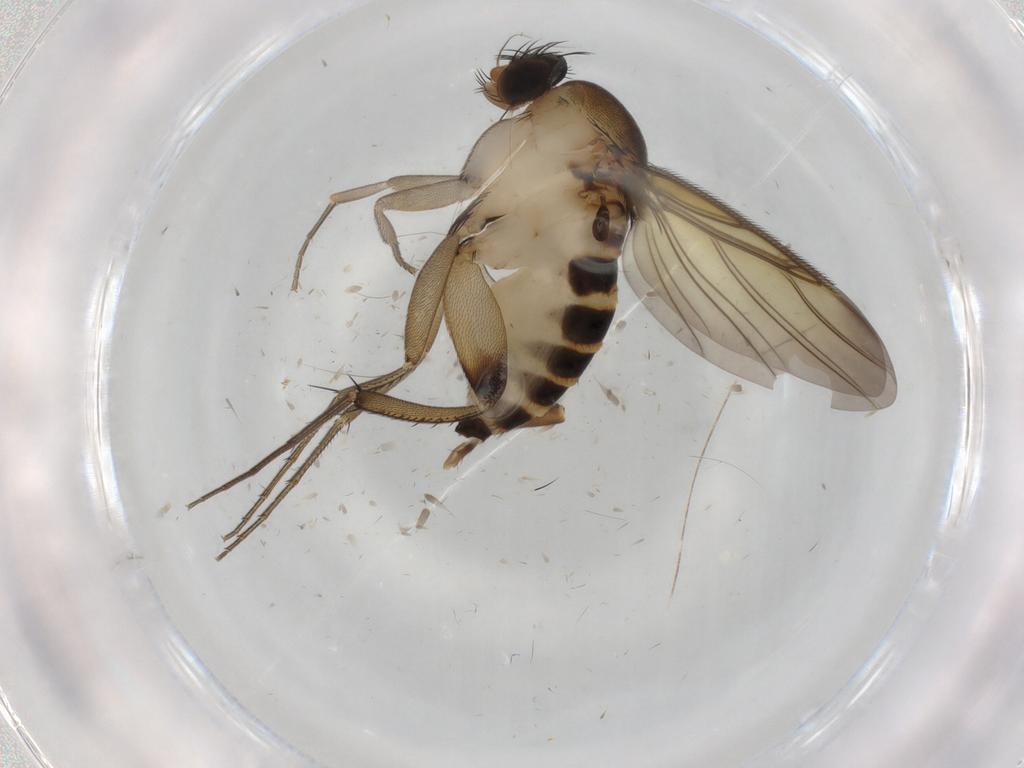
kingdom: Animalia
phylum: Arthropoda
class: Insecta
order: Diptera
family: Phoridae
